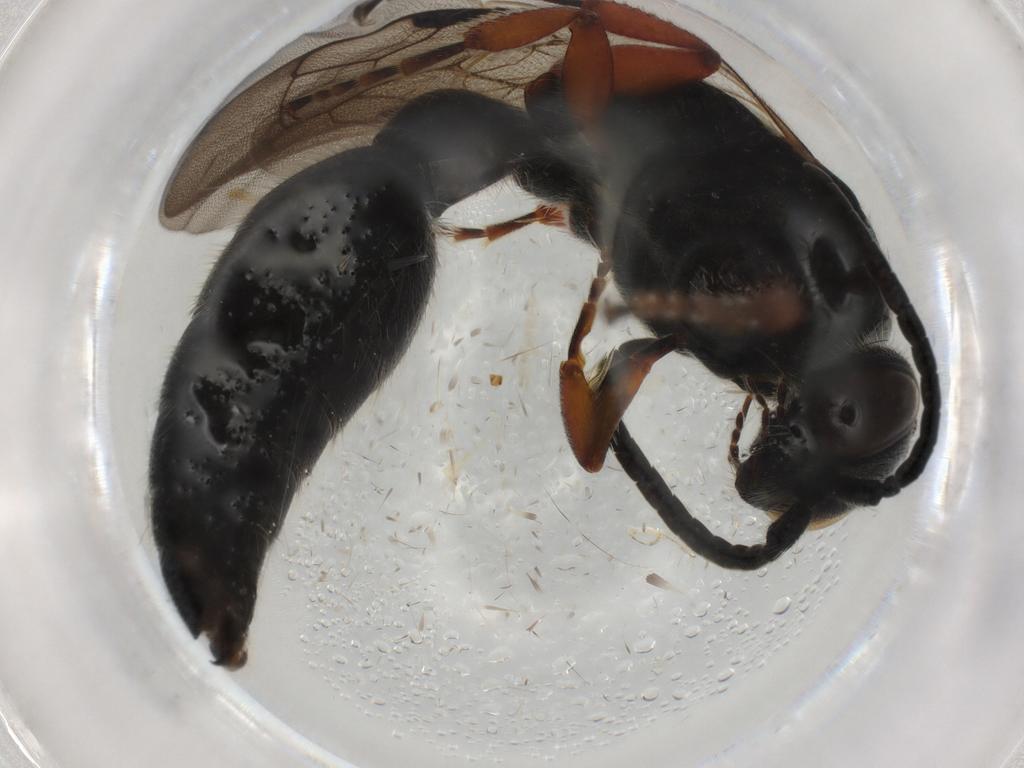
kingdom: Animalia
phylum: Arthropoda
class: Insecta
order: Hymenoptera
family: Tiphiidae
